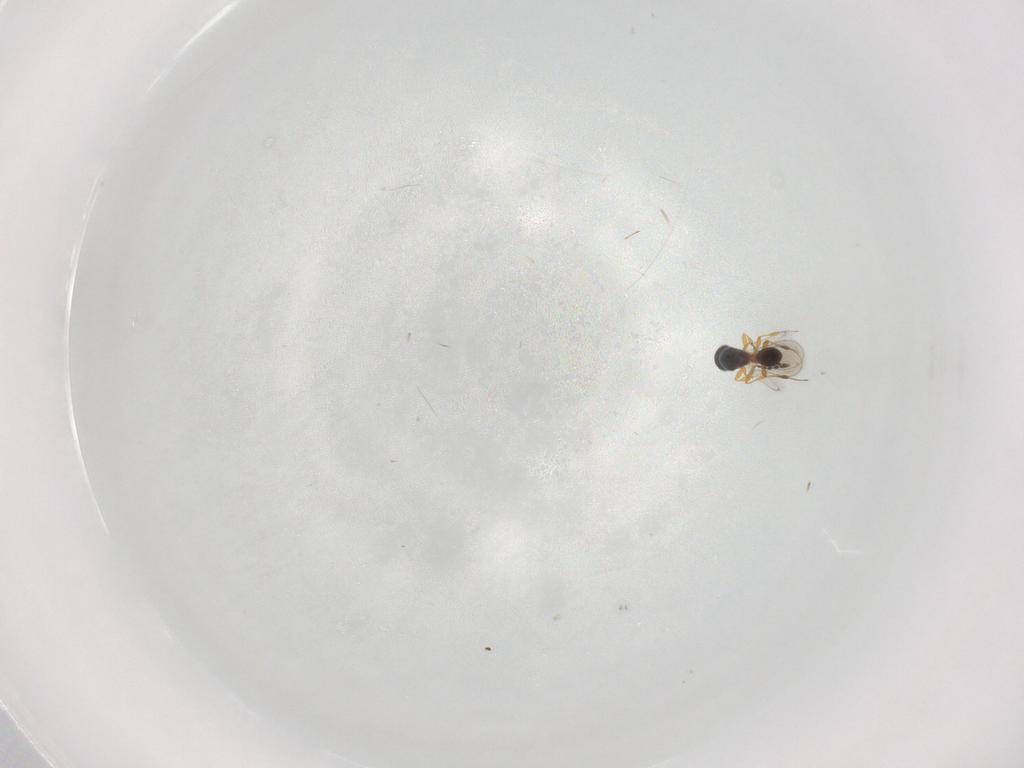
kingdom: Animalia
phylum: Arthropoda
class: Insecta
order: Hymenoptera
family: Platygastridae
